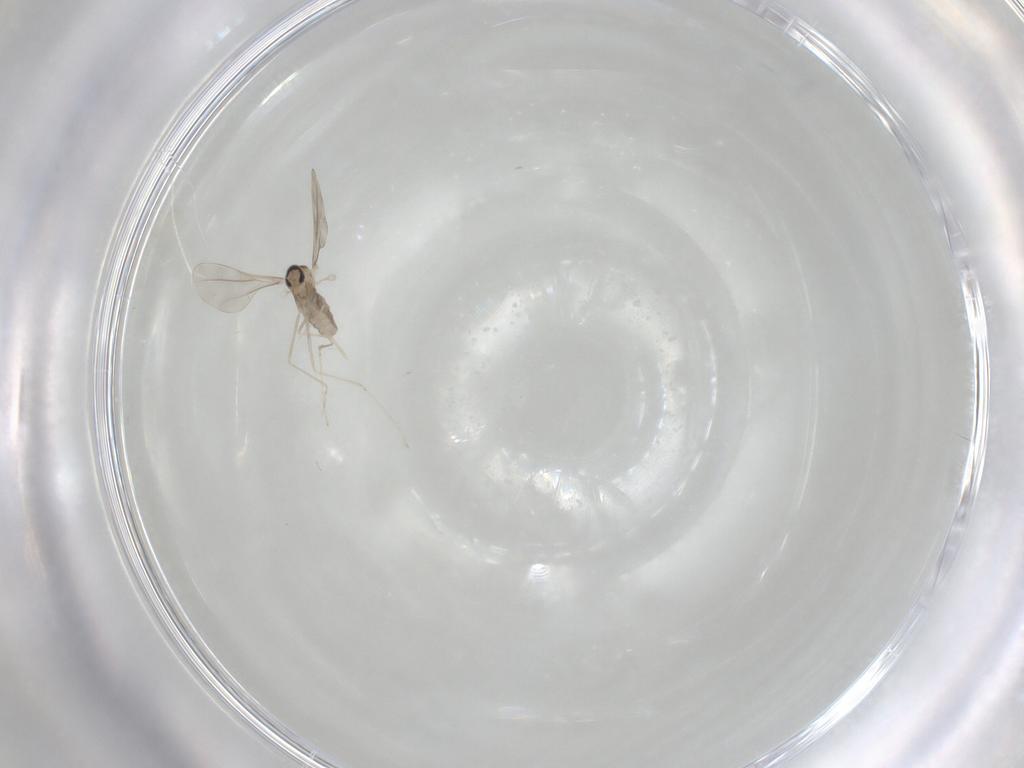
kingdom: Animalia
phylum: Arthropoda
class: Insecta
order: Diptera
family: Cecidomyiidae
